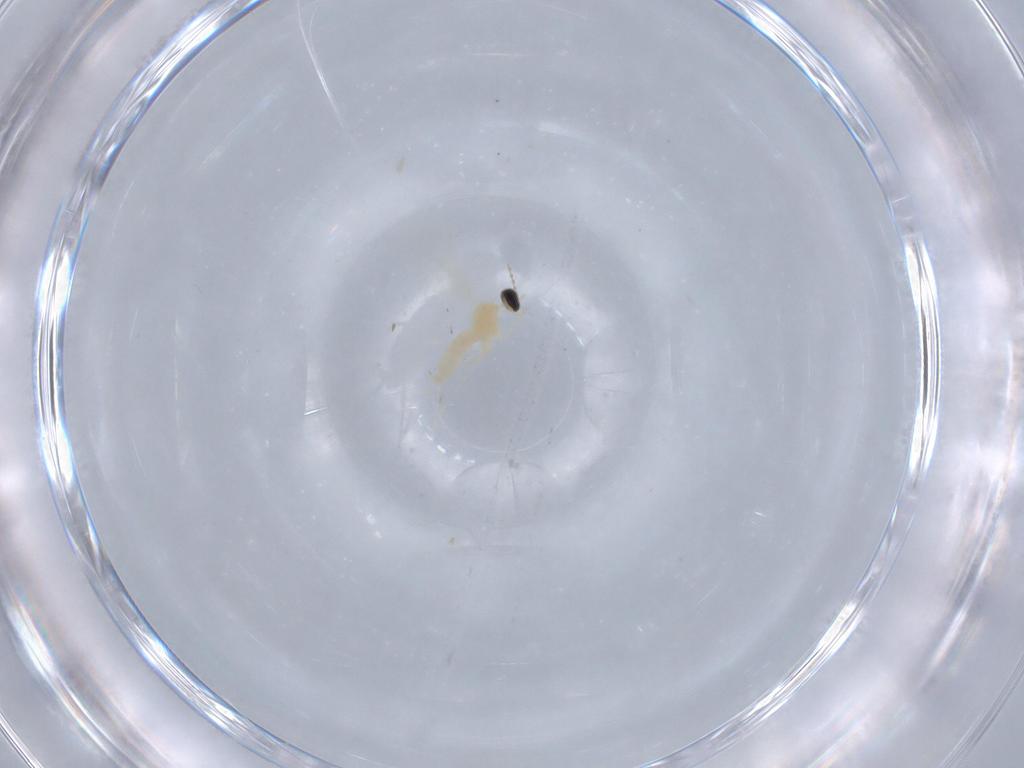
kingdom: Animalia
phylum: Arthropoda
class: Insecta
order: Diptera
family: Cecidomyiidae
